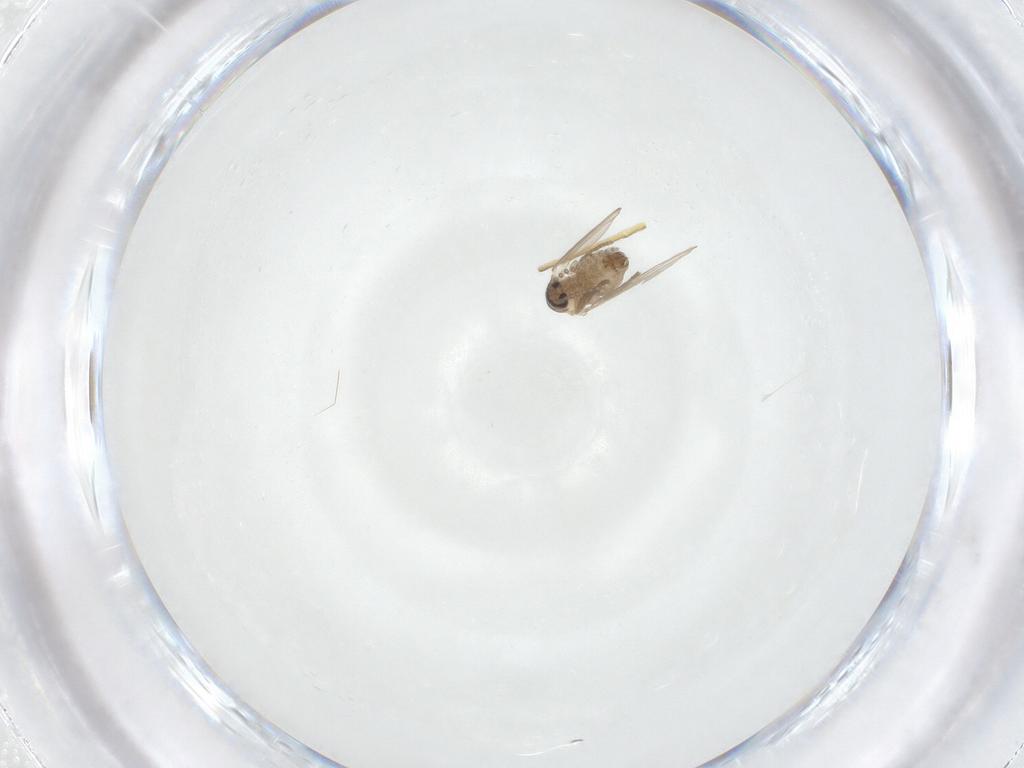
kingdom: Animalia
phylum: Arthropoda
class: Insecta
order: Diptera
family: Psychodidae
